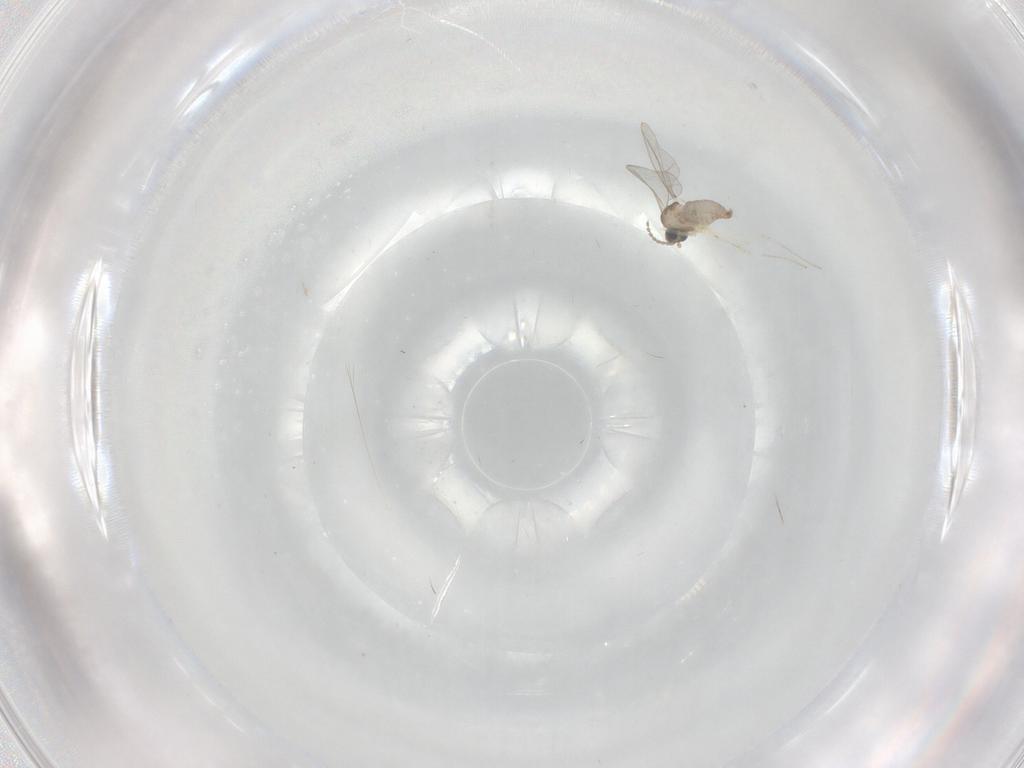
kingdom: Animalia
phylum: Arthropoda
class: Insecta
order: Diptera
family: Cecidomyiidae
